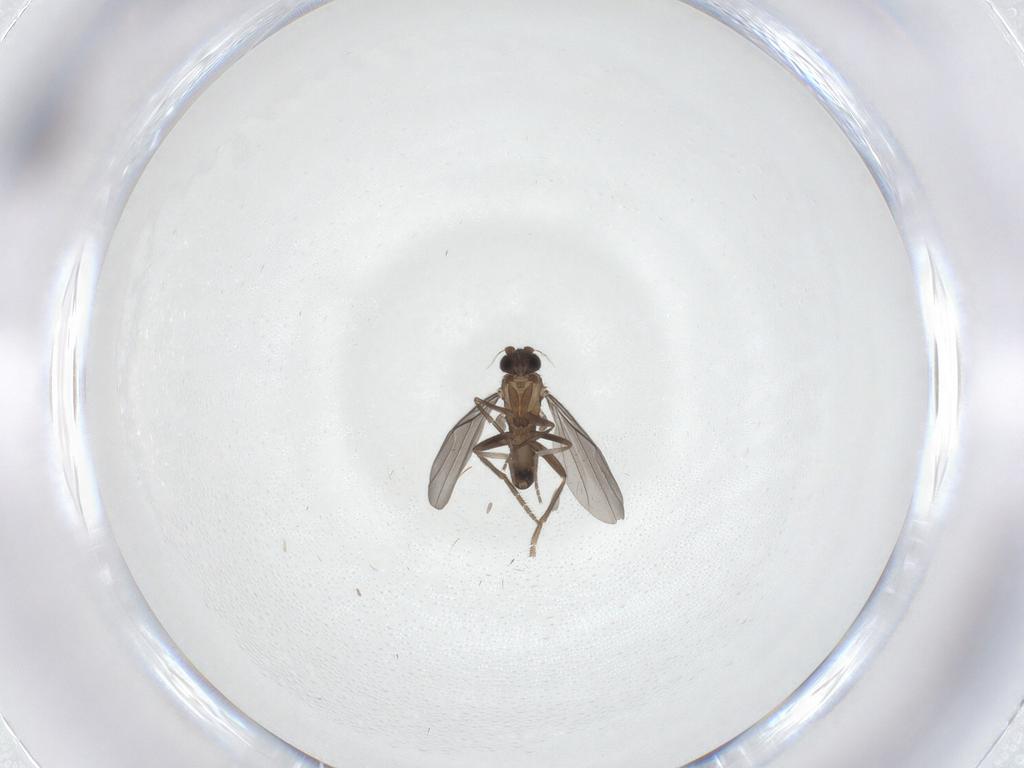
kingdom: Animalia
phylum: Arthropoda
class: Insecta
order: Diptera
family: Phoridae
